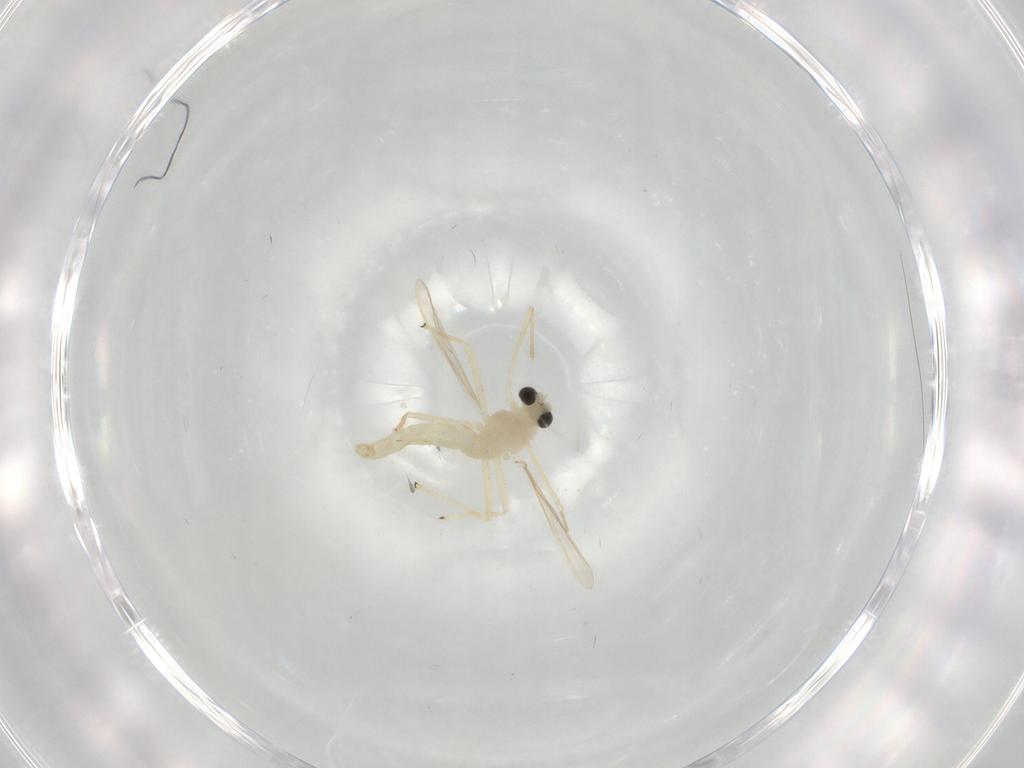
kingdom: Animalia
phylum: Arthropoda
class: Insecta
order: Diptera
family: Chironomidae
